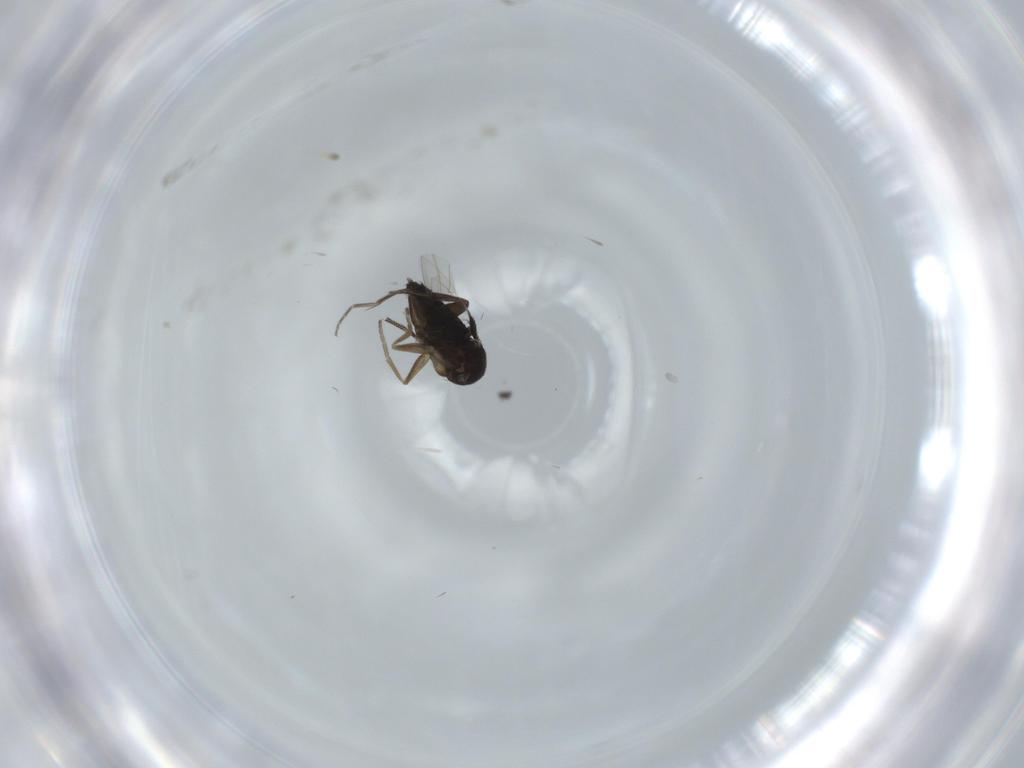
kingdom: Animalia
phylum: Arthropoda
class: Insecta
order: Diptera
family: Phoridae
